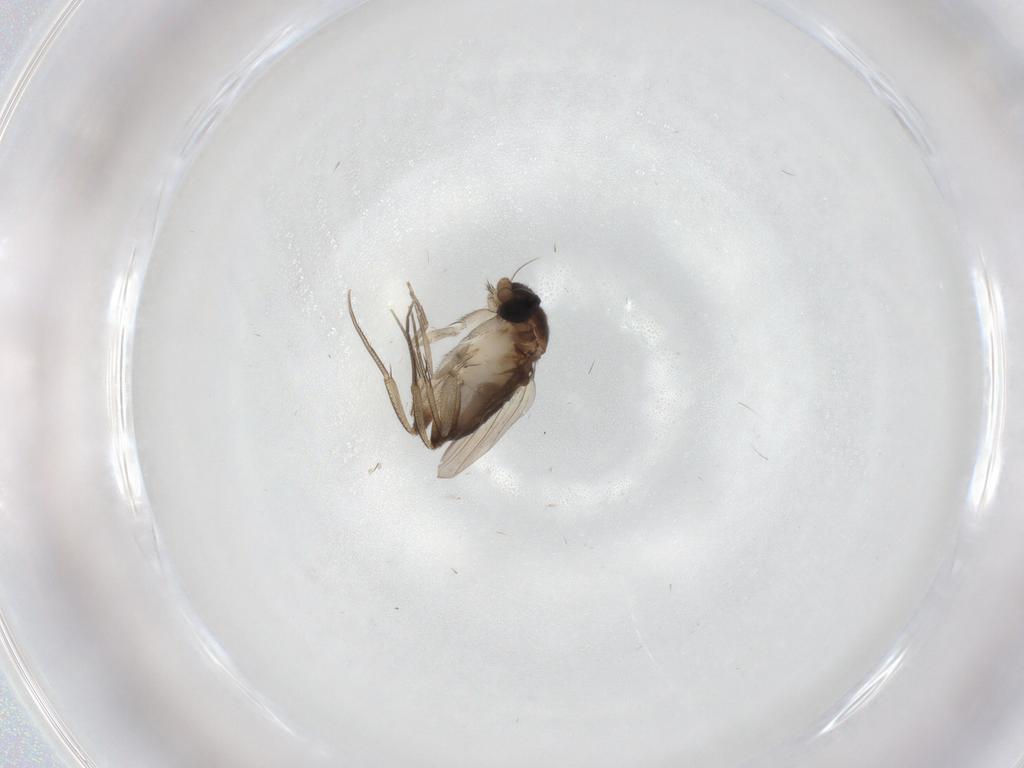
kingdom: Animalia
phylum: Arthropoda
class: Insecta
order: Diptera
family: Phoridae
